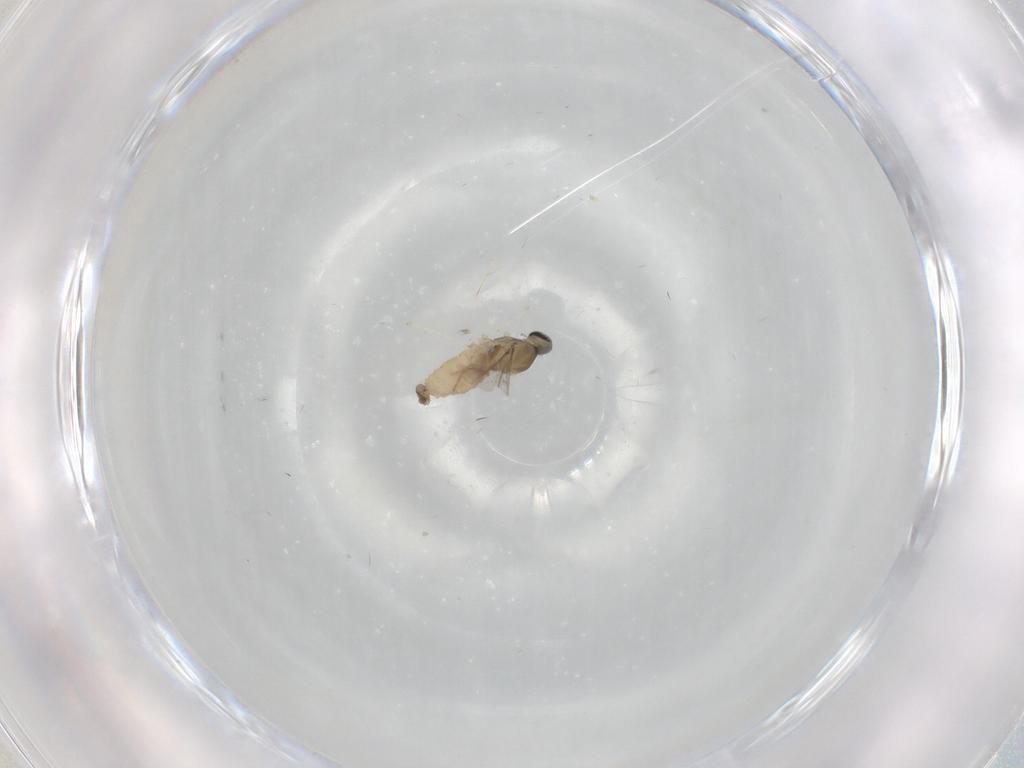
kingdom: Animalia
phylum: Arthropoda
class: Insecta
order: Diptera
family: Cecidomyiidae
